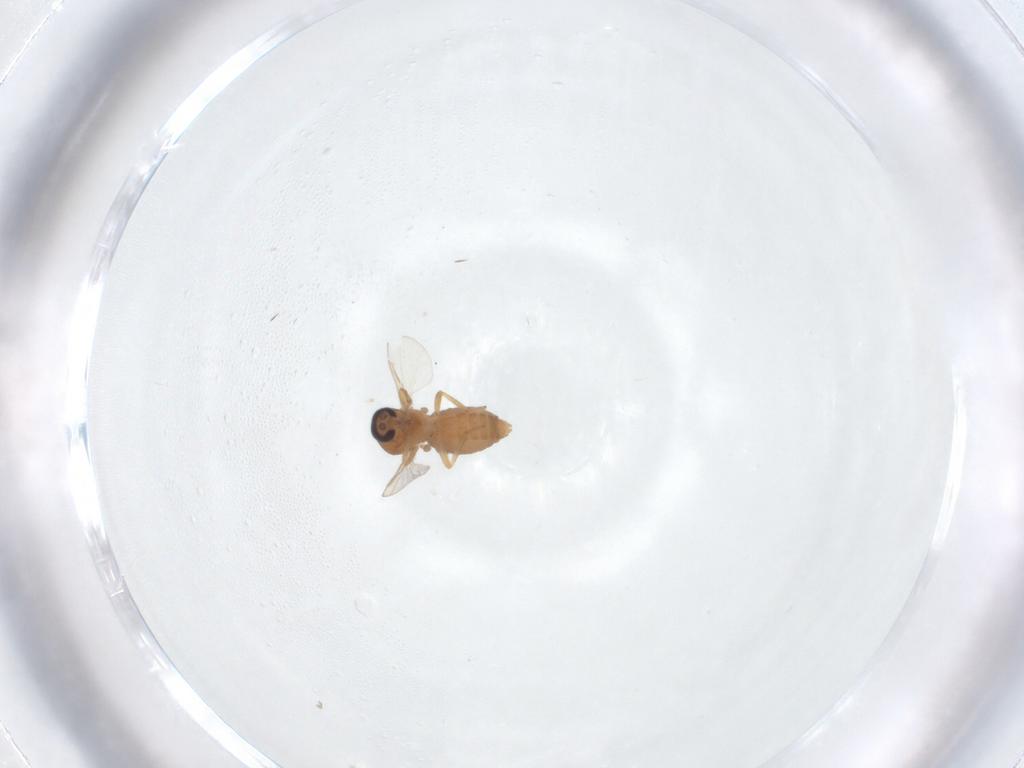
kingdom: Animalia
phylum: Arthropoda
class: Insecta
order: Diptera
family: Ceratopogonidae
